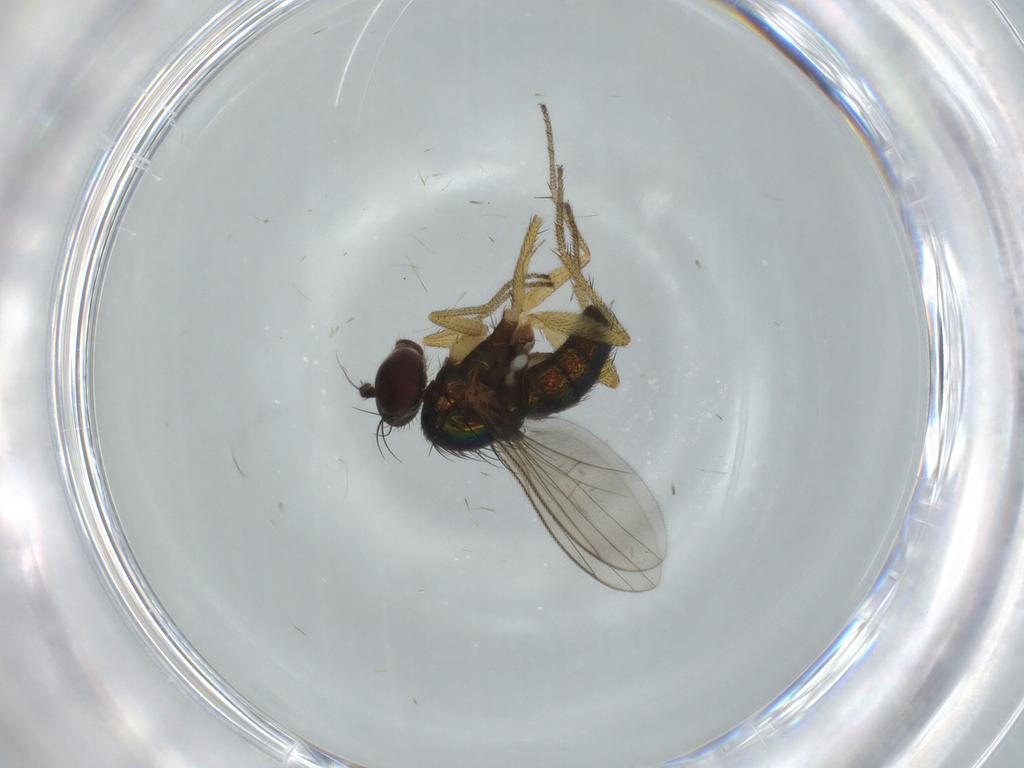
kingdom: Animalia
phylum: Arthropoda
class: Insecta
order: Diptera
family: Dolichopodidae
